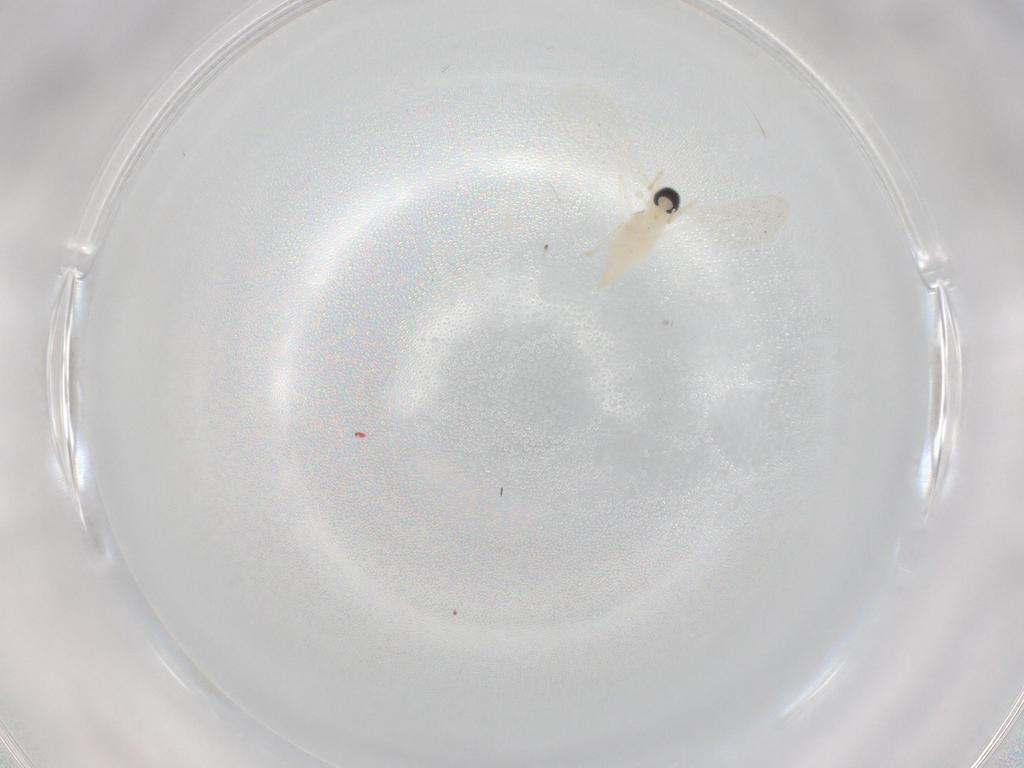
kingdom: Animalia
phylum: Arthropoda
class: Insecta
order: Diptera
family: Cecidomyiidae
